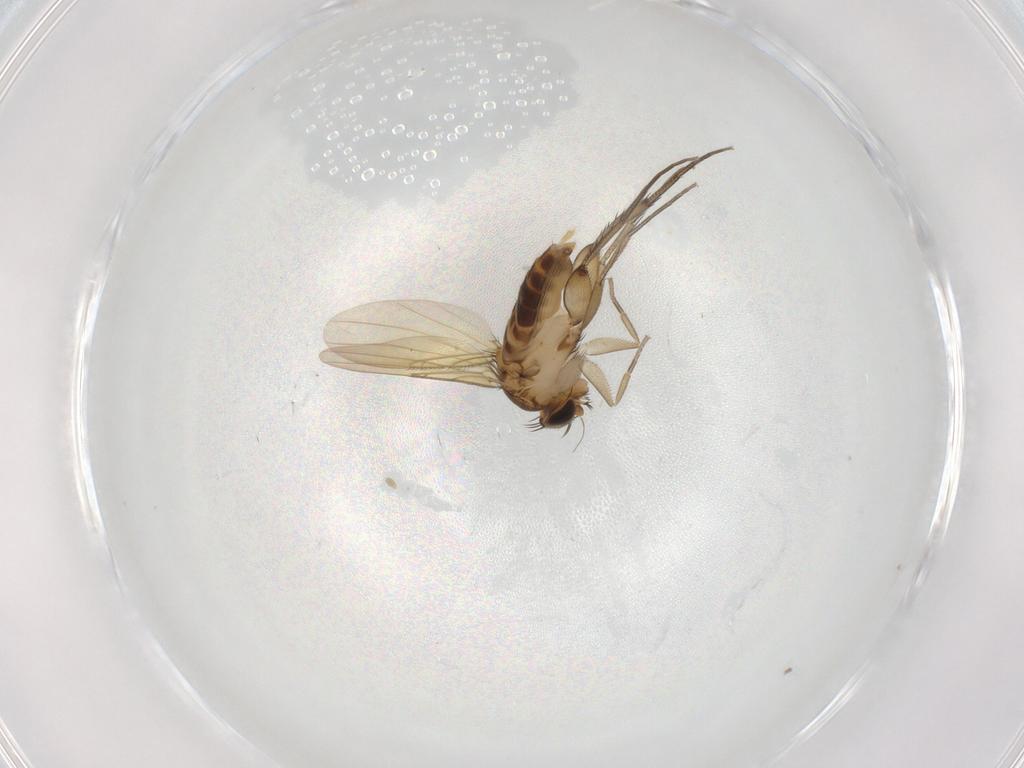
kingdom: Animalia
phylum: Arthropoda
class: Insecta
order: Diptera
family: Phoridae
